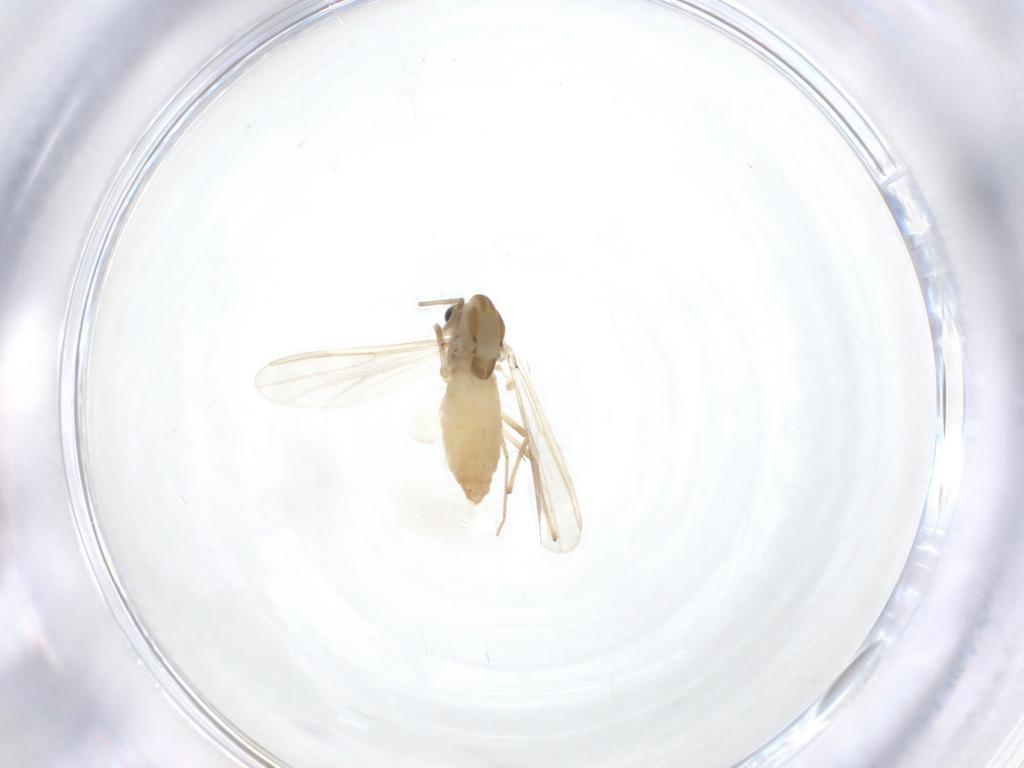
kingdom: Animalia
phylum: Arthropoda
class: Insecta
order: Diptera
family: Chironomidae
